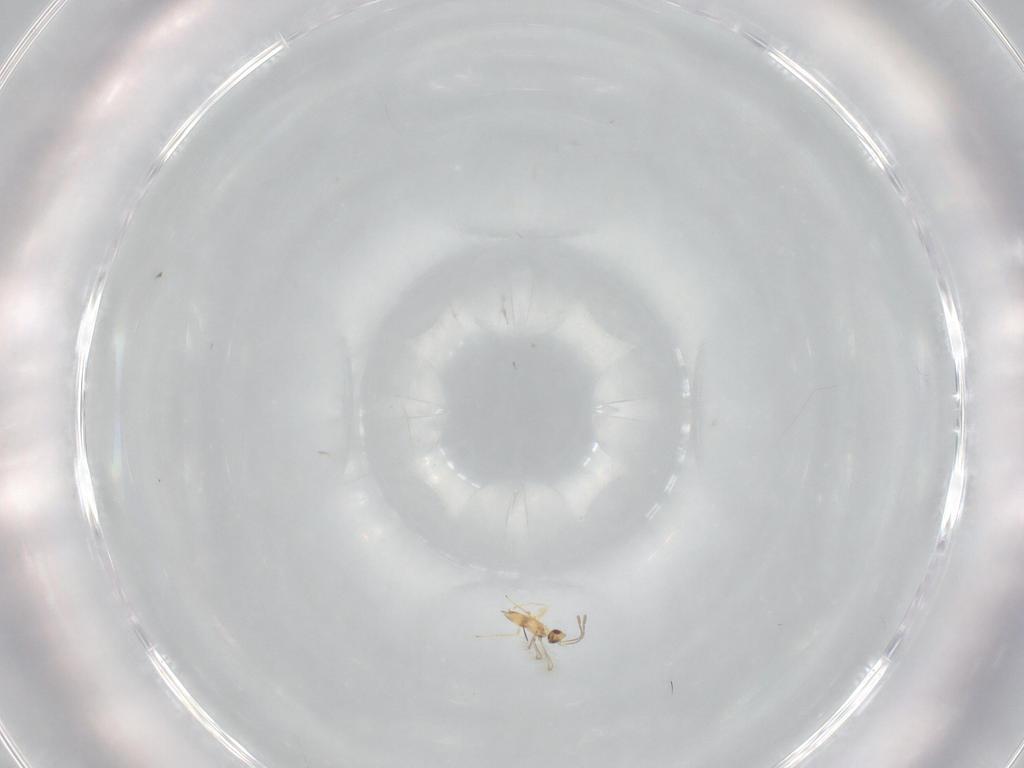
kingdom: Animalia
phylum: Arthropoda
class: Insecta
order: Hymenoptera
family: Mymaridae
